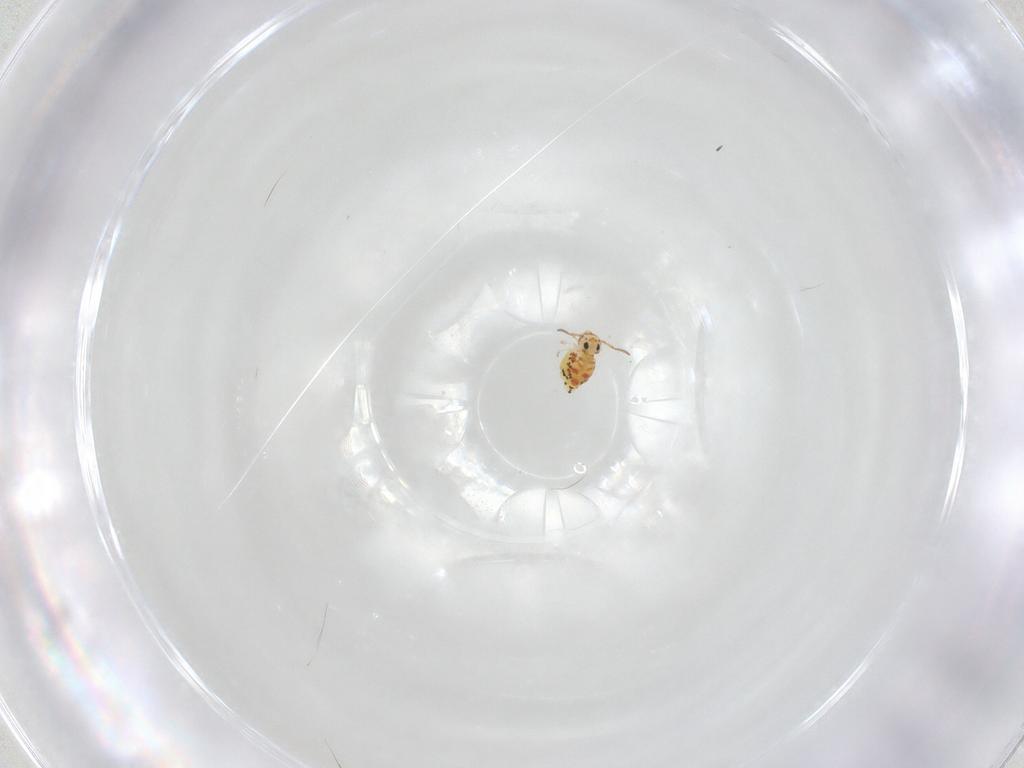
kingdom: Animalia
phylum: Arthropoda
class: Collembola
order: Symphypleona
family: Bourletiellidae
